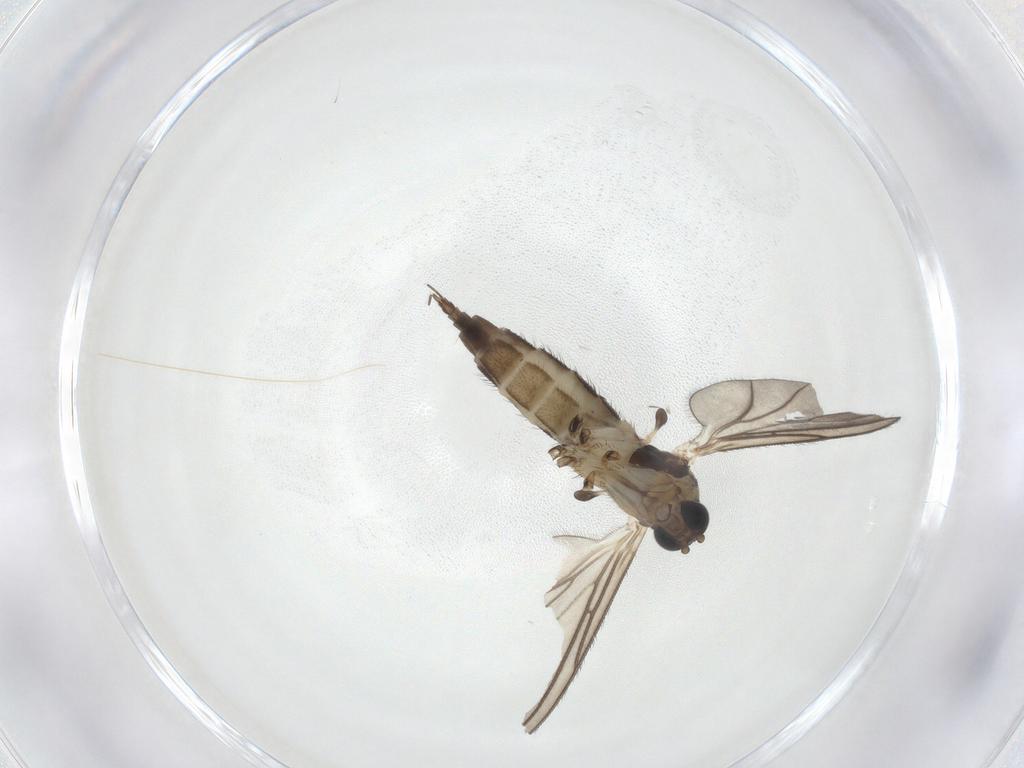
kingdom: Animalia
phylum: Arthropoda
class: Insecta
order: Diptera
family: Sciaridae
